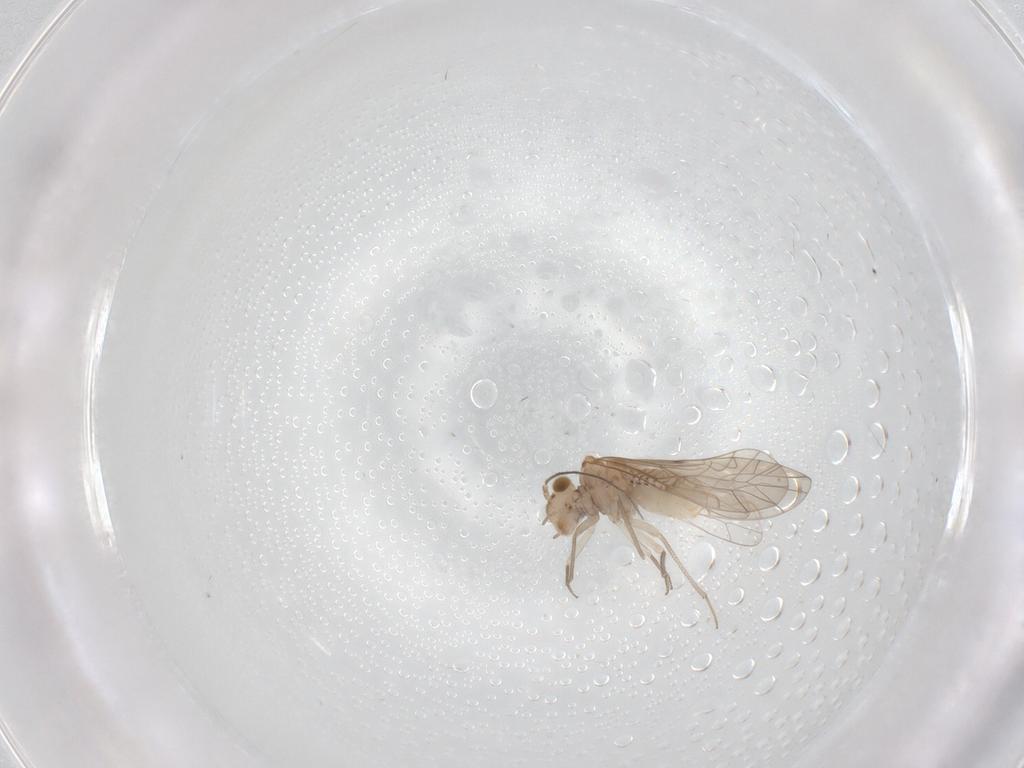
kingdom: Animalia
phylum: Arthropoda
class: Insecta
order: Psocodea
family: Lachesillidae
